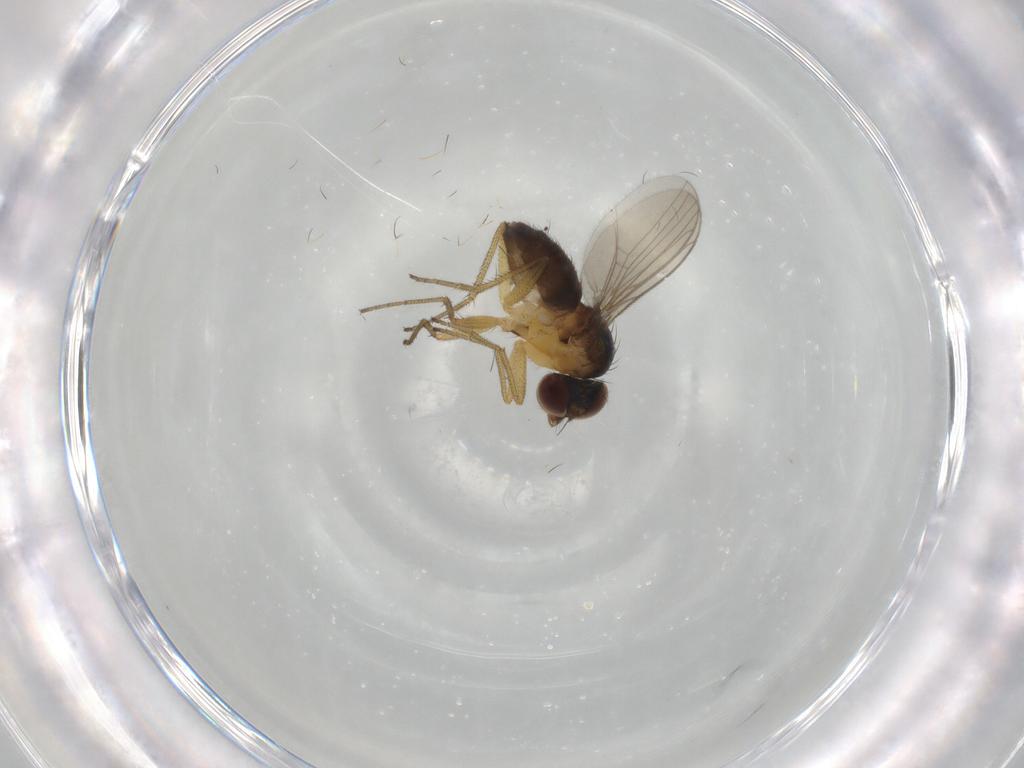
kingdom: Animalia
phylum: Arthropoda
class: Insecta
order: Diptera
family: Dolichopodidae
